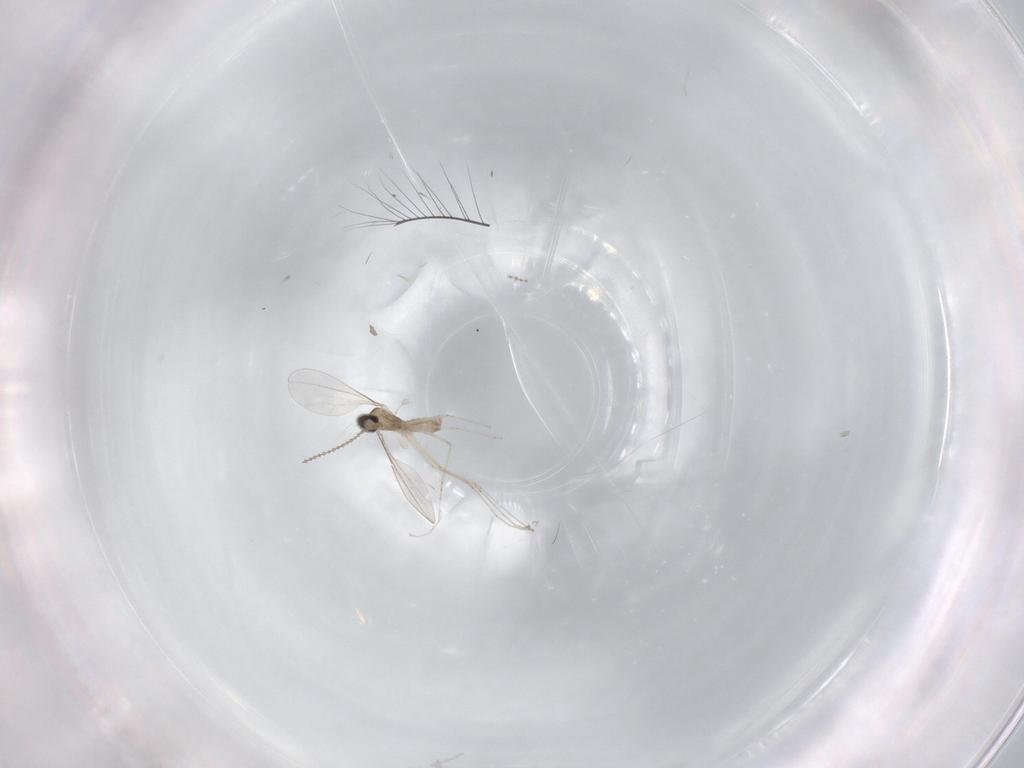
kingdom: Animalia
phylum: Arthropoda
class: Insecta
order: Diptera
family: Cecidomyiidae
